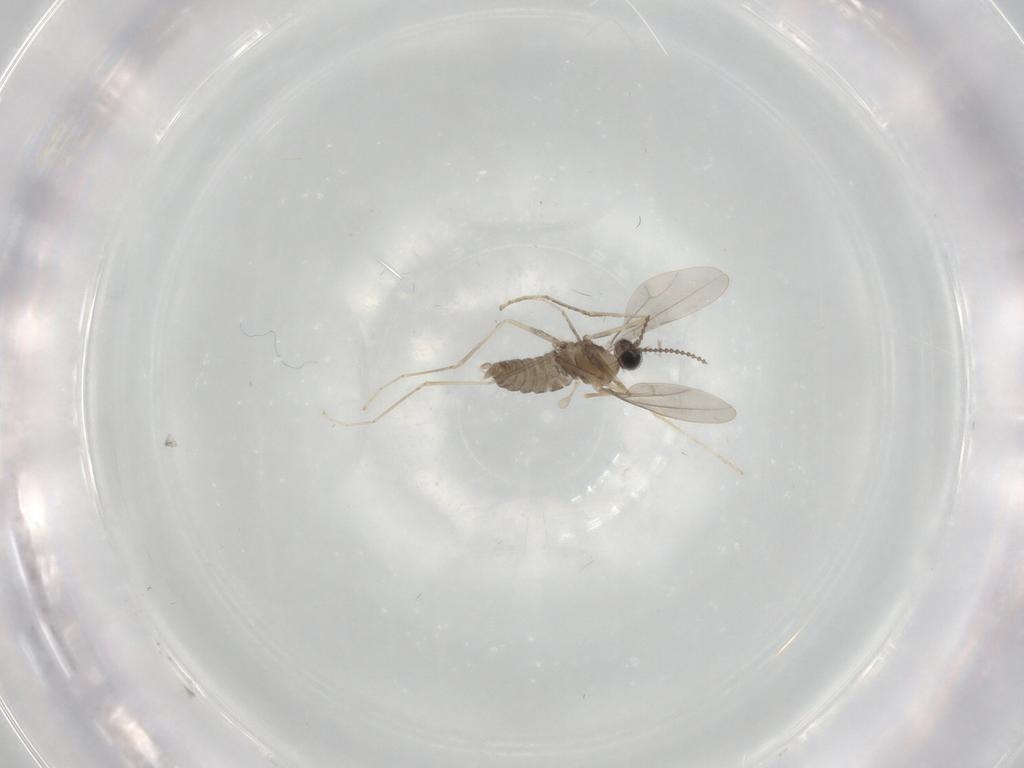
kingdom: Animalia
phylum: Arthropoda
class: Insecta
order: Diptera
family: Cecidomyiidae
